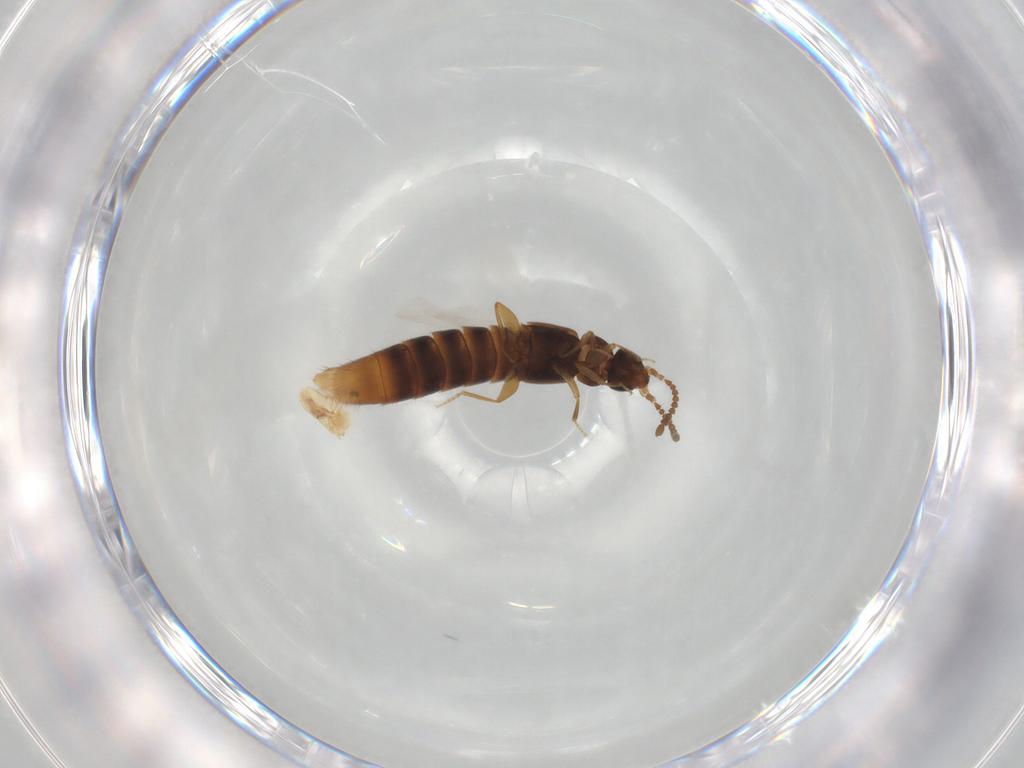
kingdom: Animalia
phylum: Arthropoda
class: Insecta
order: Coleoptera
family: Staphylinidae
